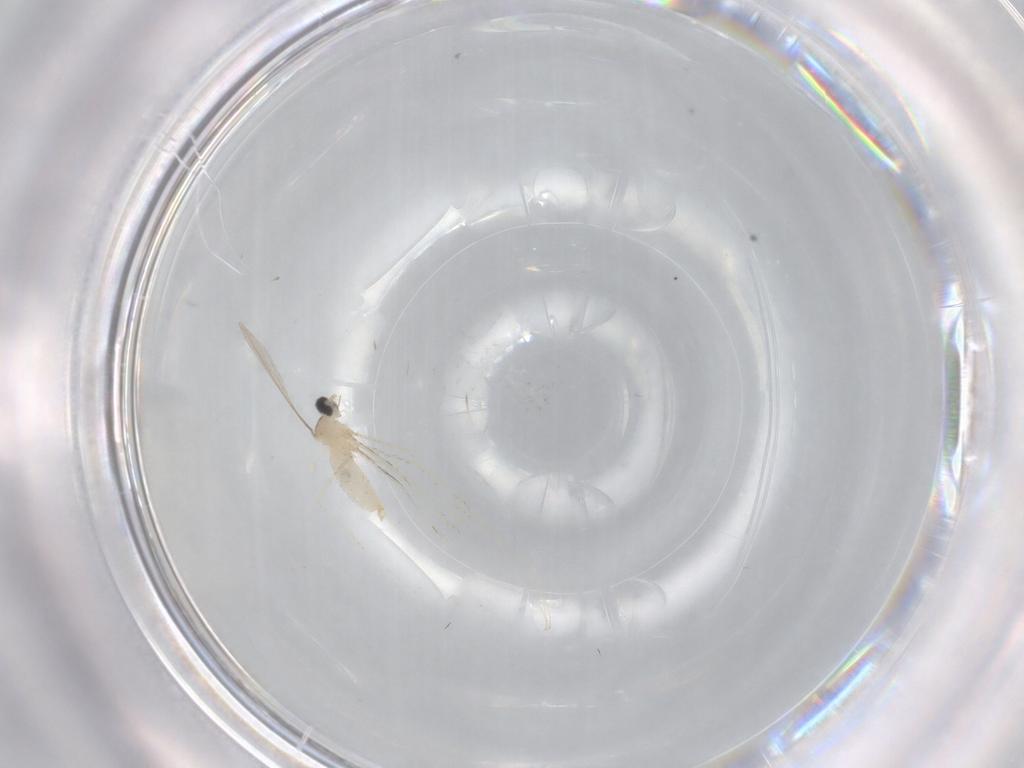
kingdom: Animalia
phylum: Arthropoda
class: Insecta
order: Diptera
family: Cecidomyiidae
